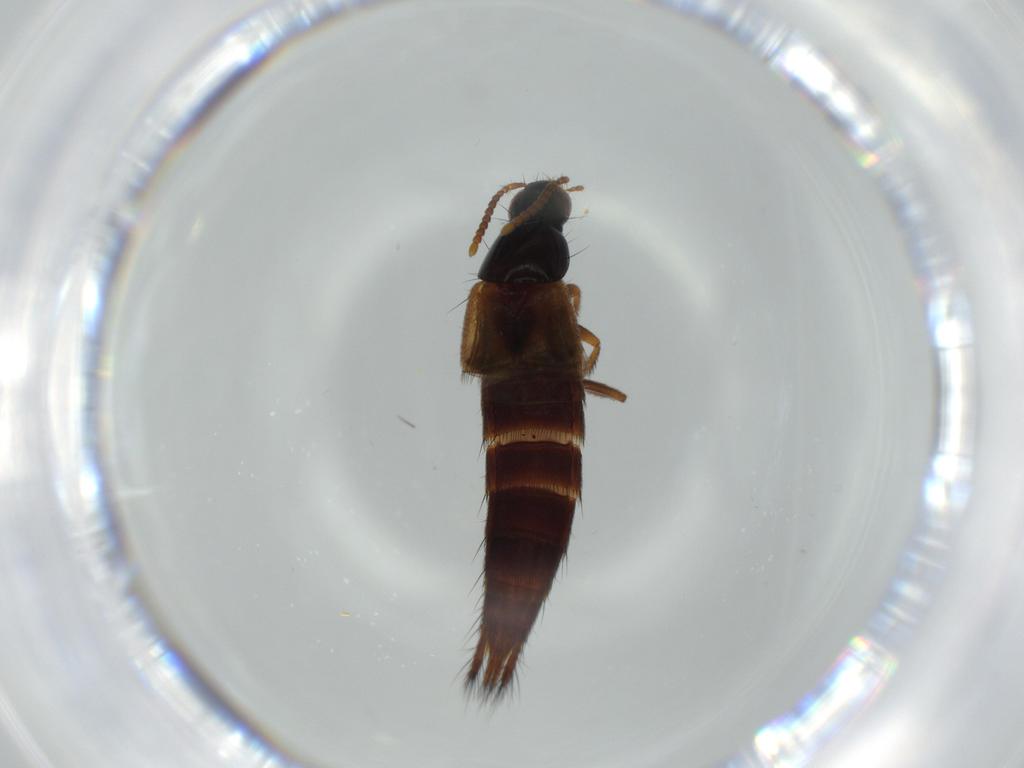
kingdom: Animalia
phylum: Arthropoda
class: Insecta
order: Coleoptera
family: Staphylinidae
